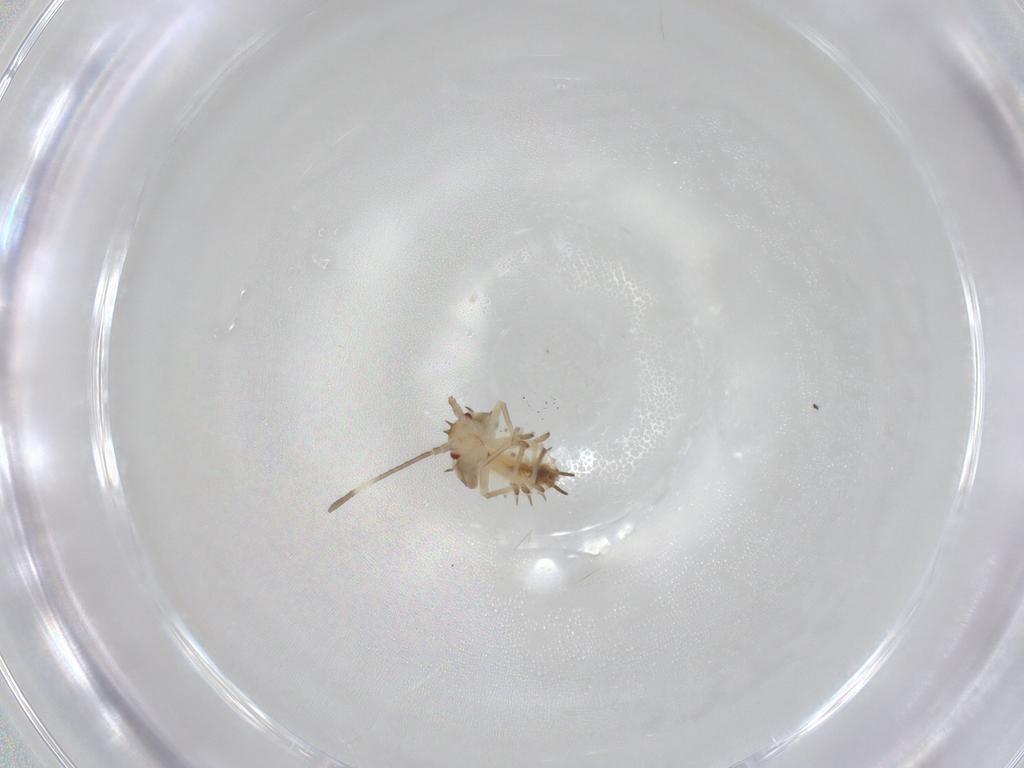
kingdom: Animalia
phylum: Arthropoda
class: Insecta
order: Hemiptera
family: Tingidae
